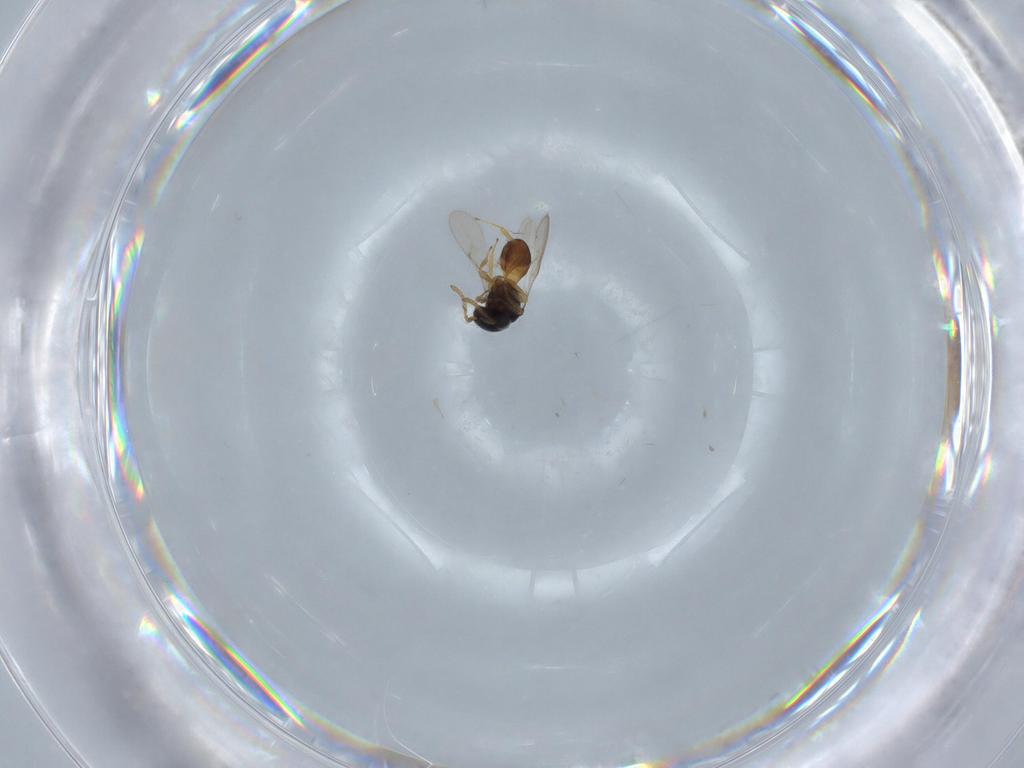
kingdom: Animalia
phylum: Arthropoda
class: Insecta
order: Hymenoptera
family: Scelionidae
